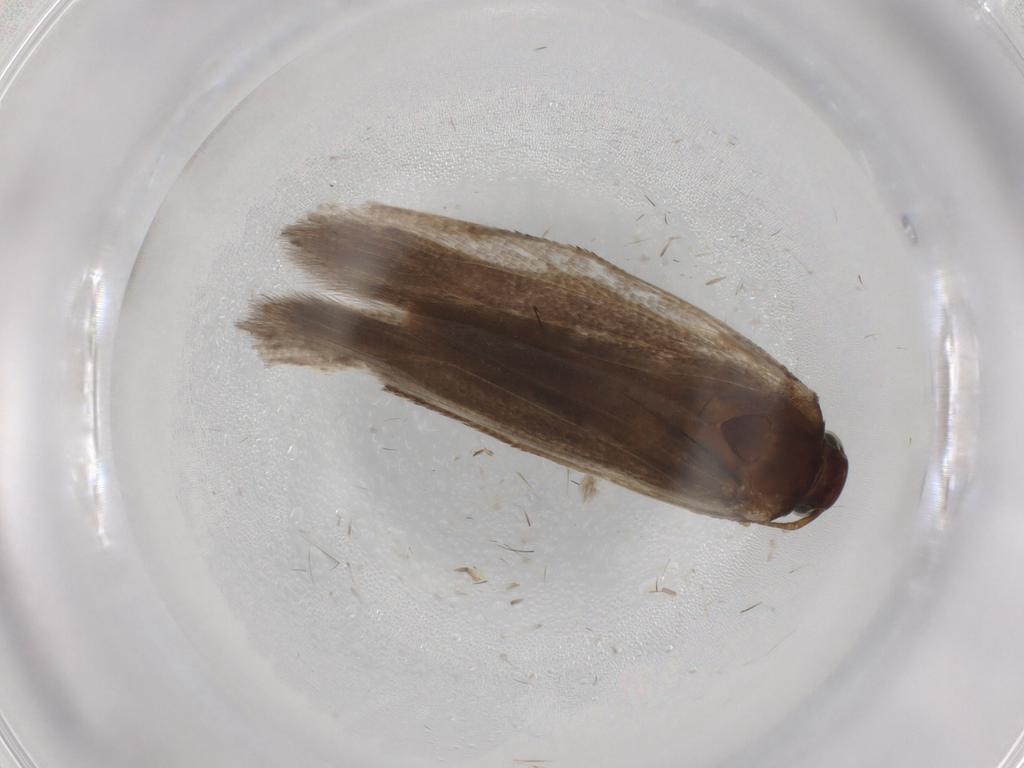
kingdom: Animalia
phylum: Arthropoda
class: Insecta
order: Lepidoptera
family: Gelechiidae
